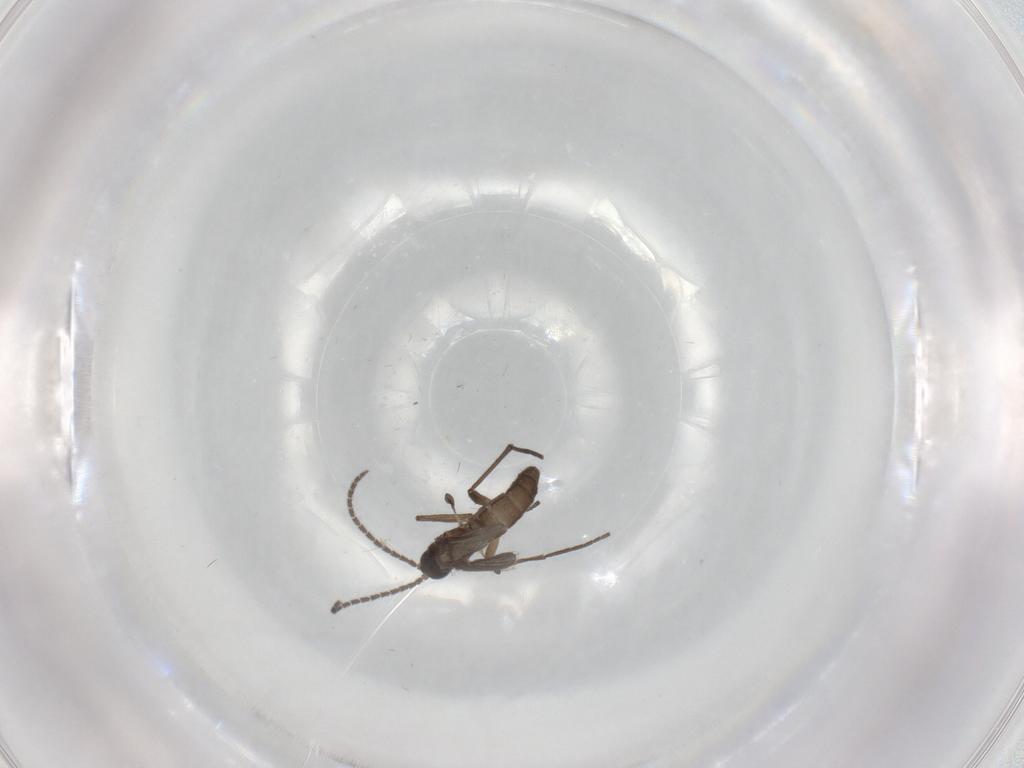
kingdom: Animalia
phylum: Arthropoda
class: Insecta
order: Diptera
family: Sciaridae
